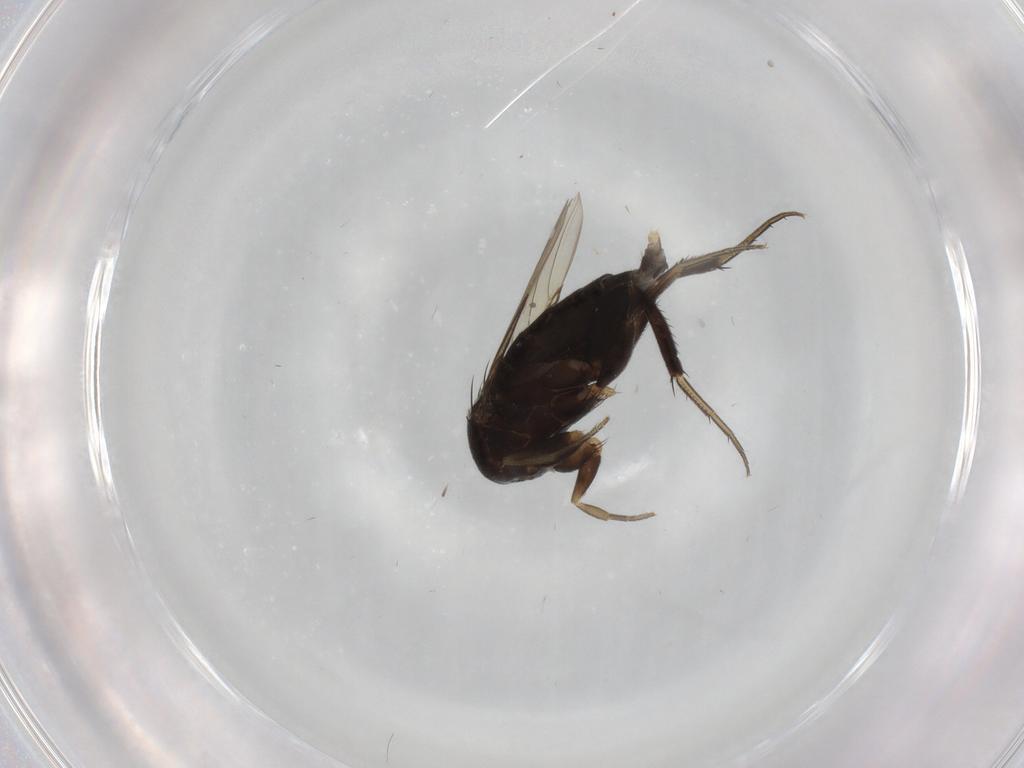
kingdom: Animalia
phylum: Arthropoda
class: Insecta
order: Diptera
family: Phoridae
